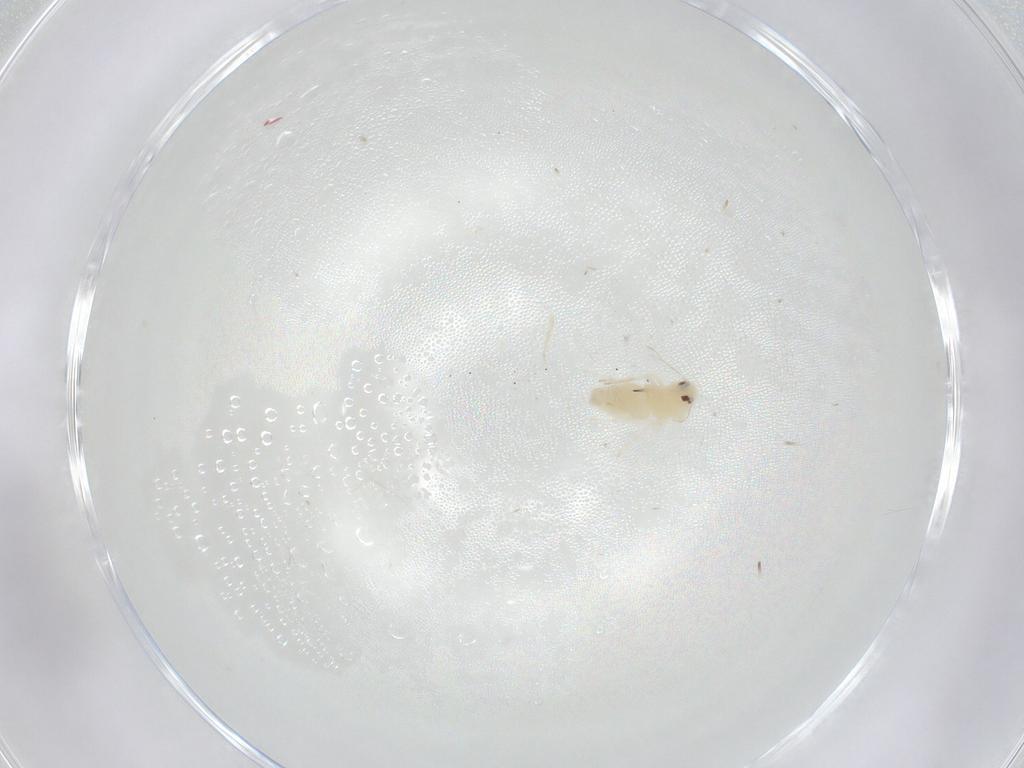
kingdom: Animalia
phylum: Arthropoda
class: Insecta
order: Hemiptera
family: Aleyrodidae
